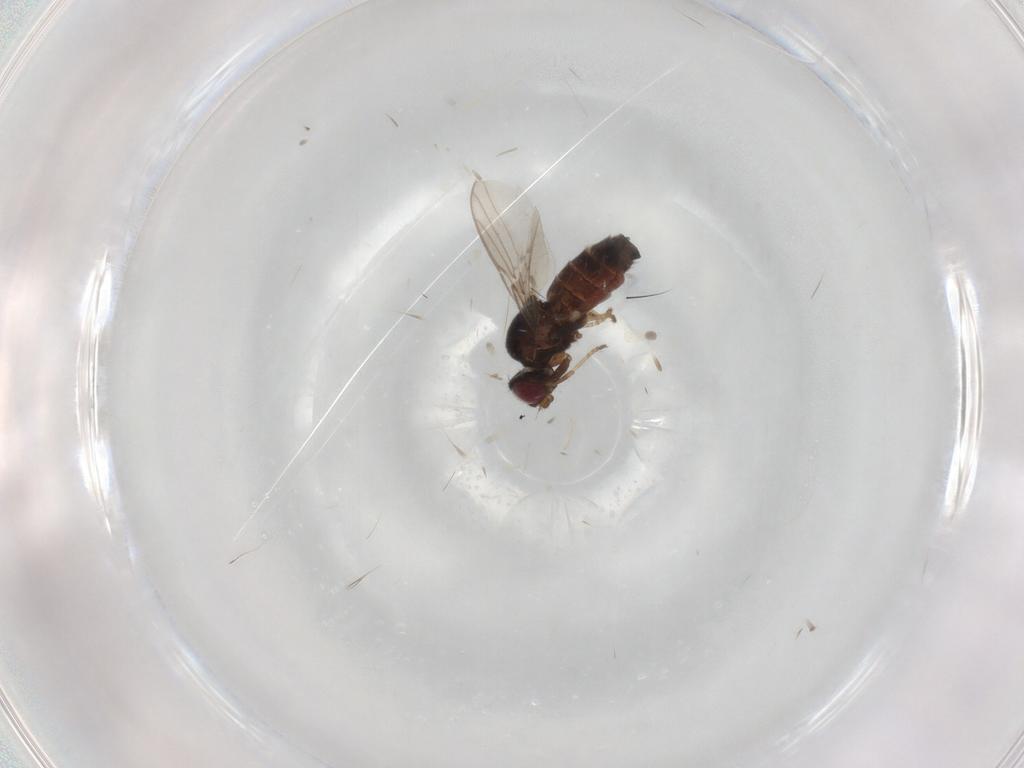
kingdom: Animalia
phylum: Arthropoda
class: Insecta
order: Diptera
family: Chloropidae
